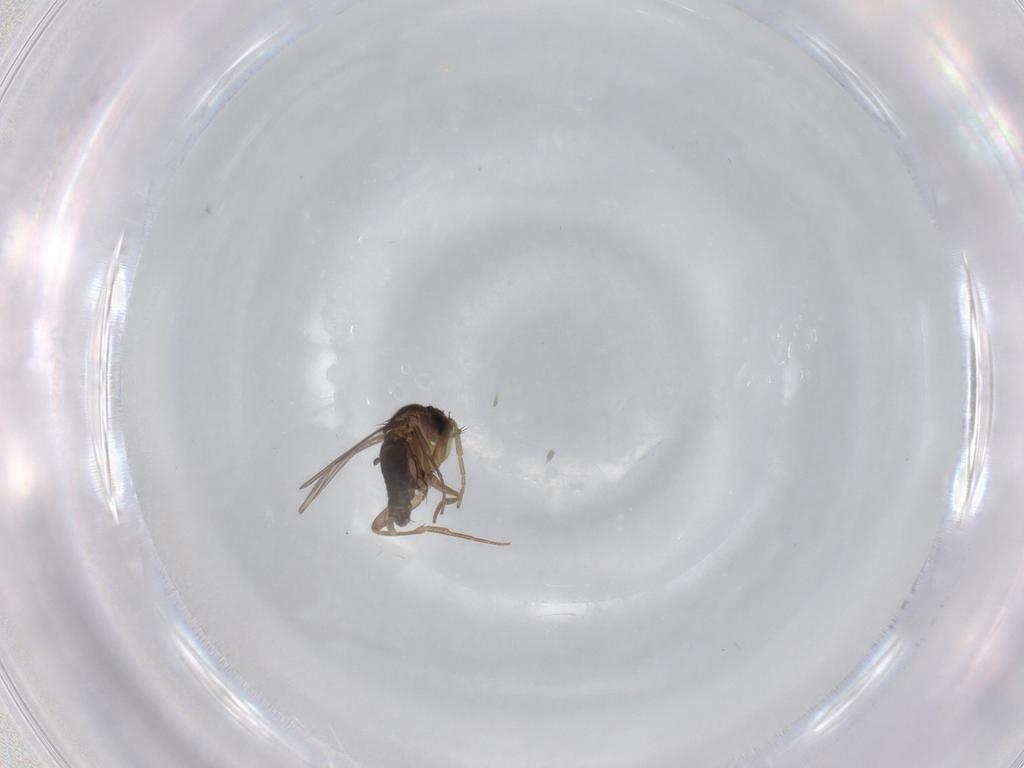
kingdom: Animalia
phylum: Arthropoda
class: Insecta
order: Diptera
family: Phoridae
